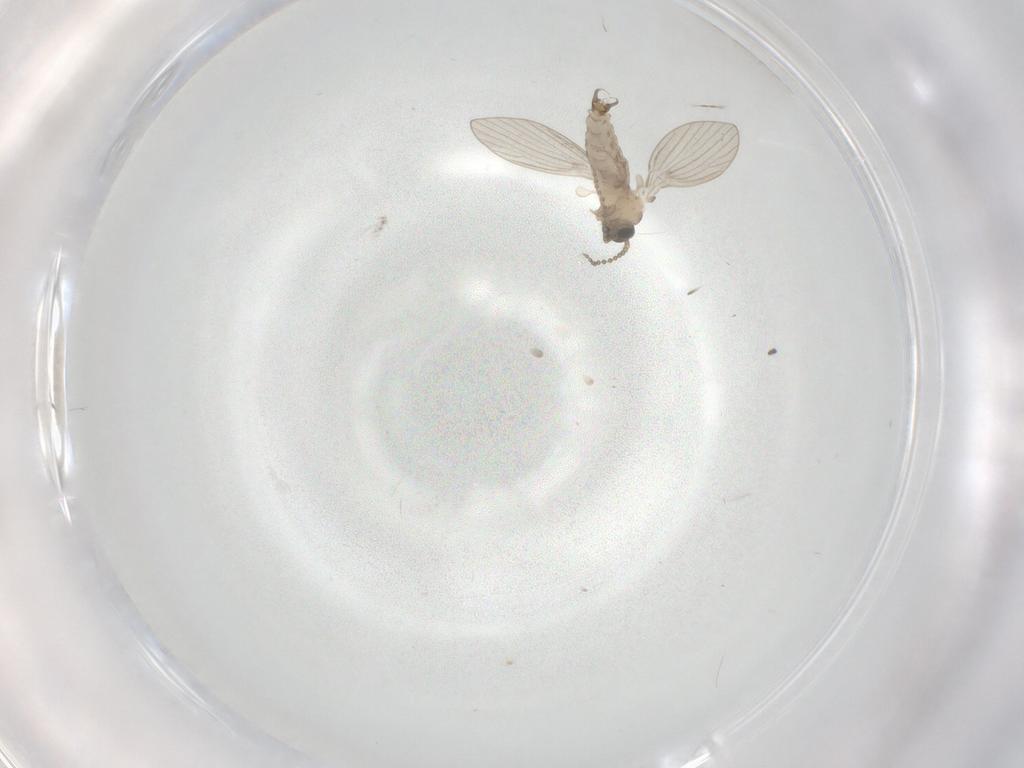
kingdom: Animalia
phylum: Arthropoda
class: Insecta
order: Diptera
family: Psychodidae
